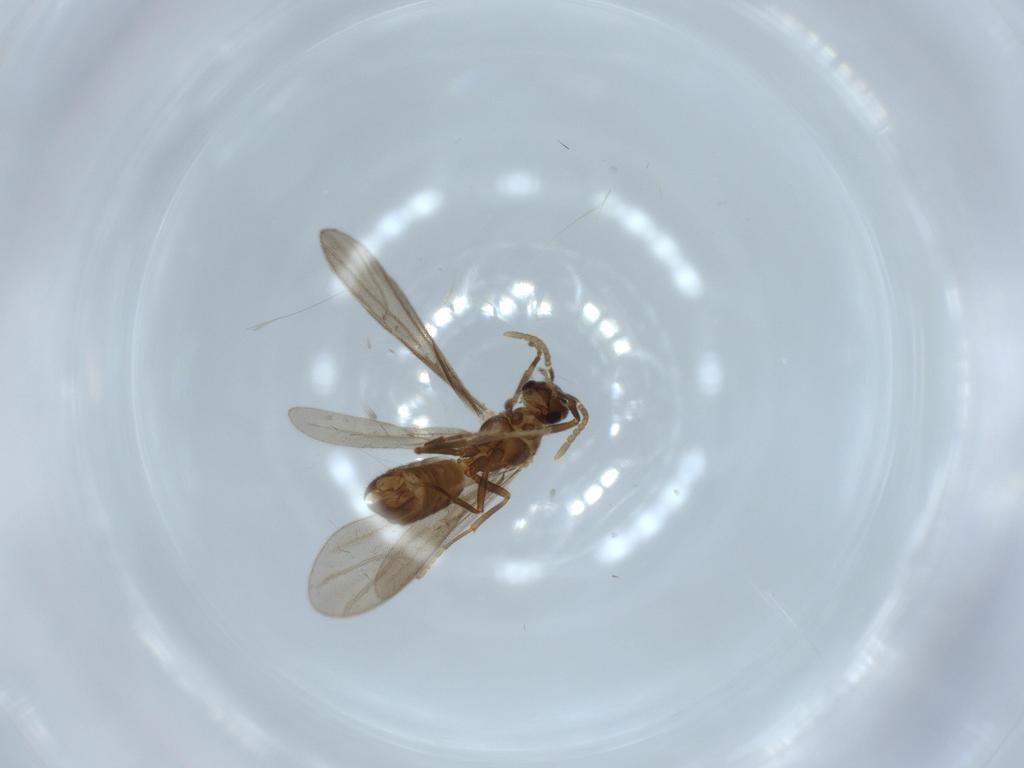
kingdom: Animalia
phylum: Arthropoda
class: Insecta
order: Hymenoptera
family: Formicidae
